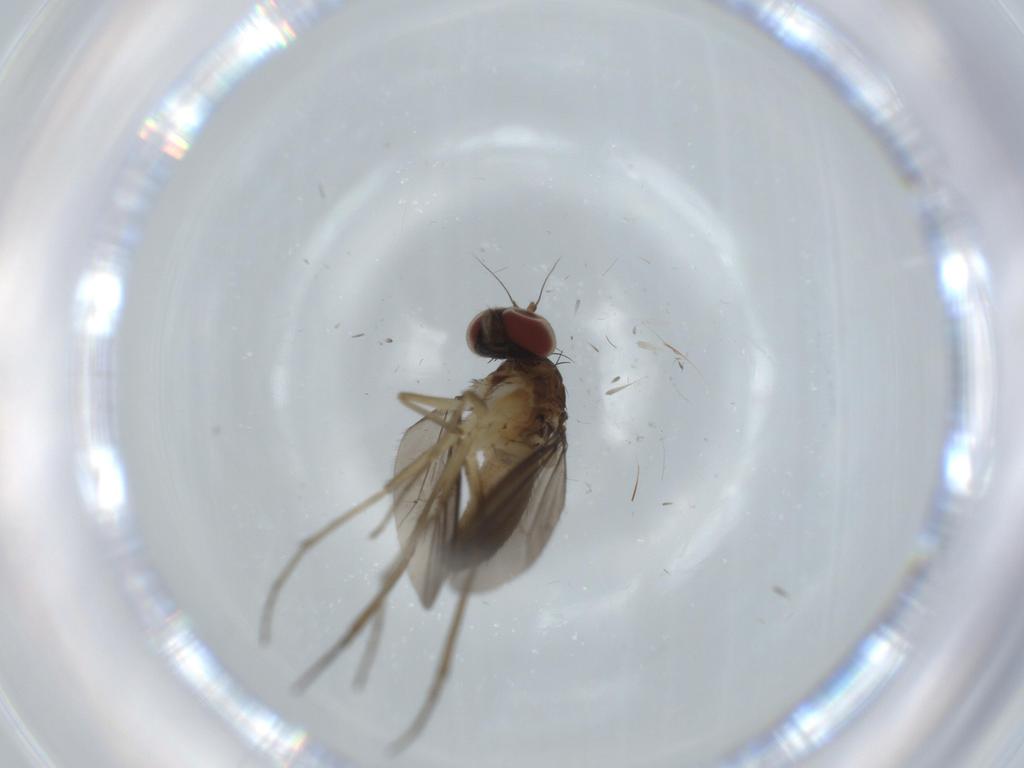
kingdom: Animalia
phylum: Arthropoda
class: Insecta
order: Diptera
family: Dolichopodidae
